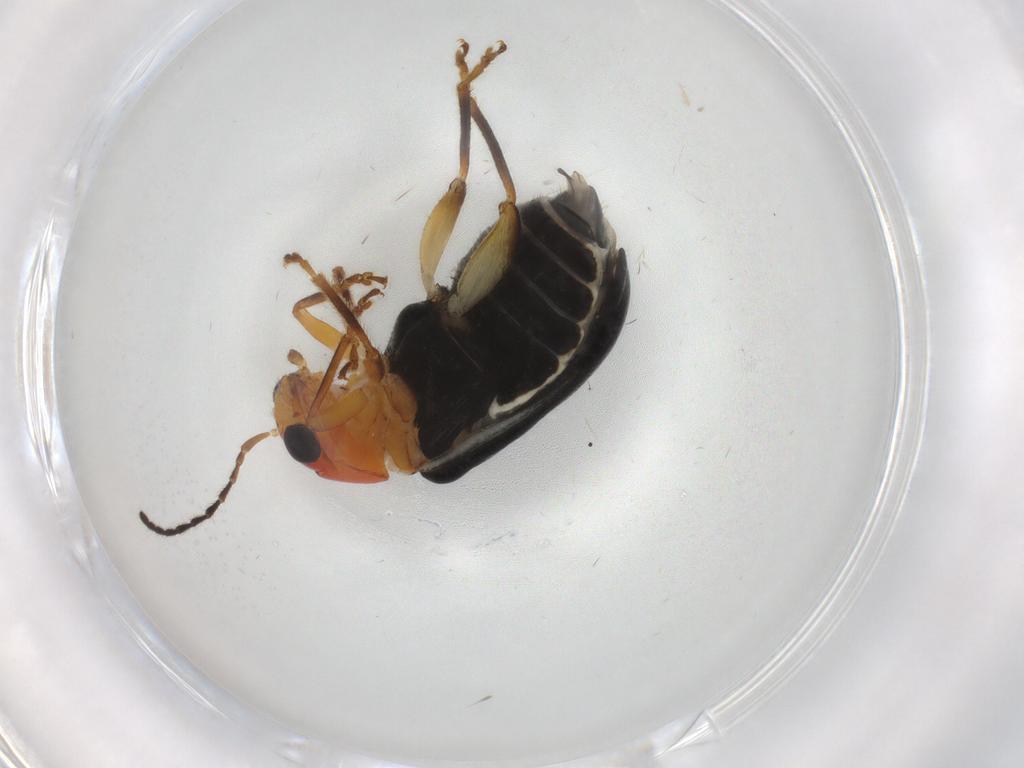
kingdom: Animalia
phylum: Arthropoda
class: Insecta
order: Coleoptera
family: Chrysomelidae
